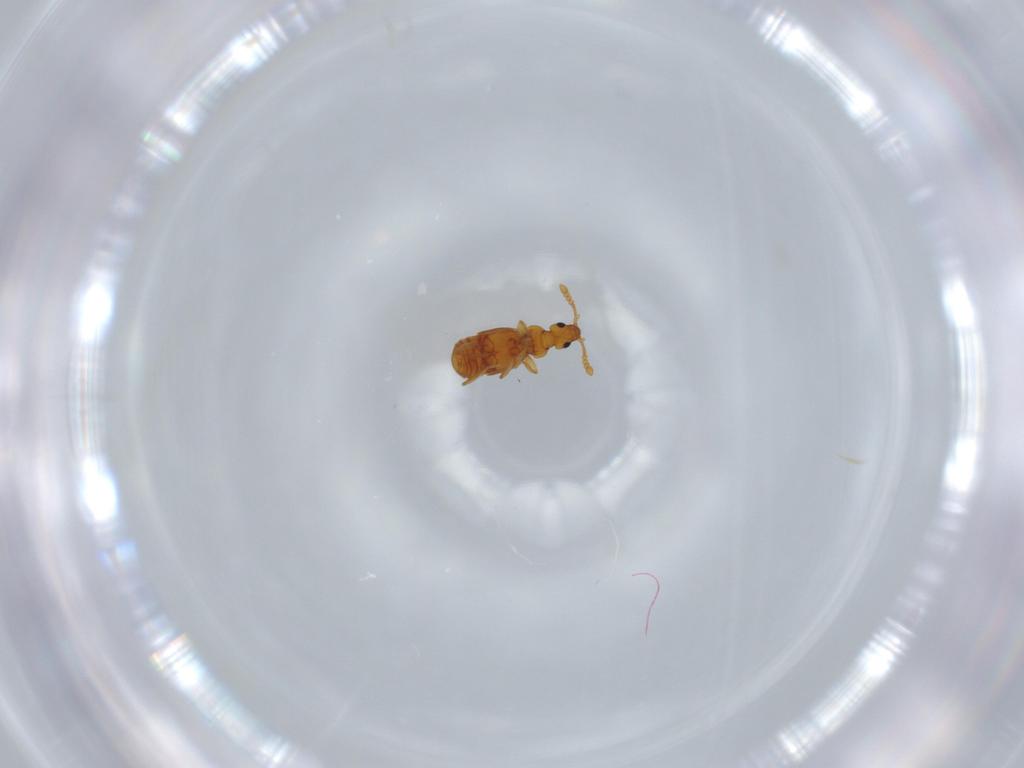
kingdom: Animalia
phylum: Arthropoda
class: Insecta
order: Coleoptera
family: Staphylinidae
